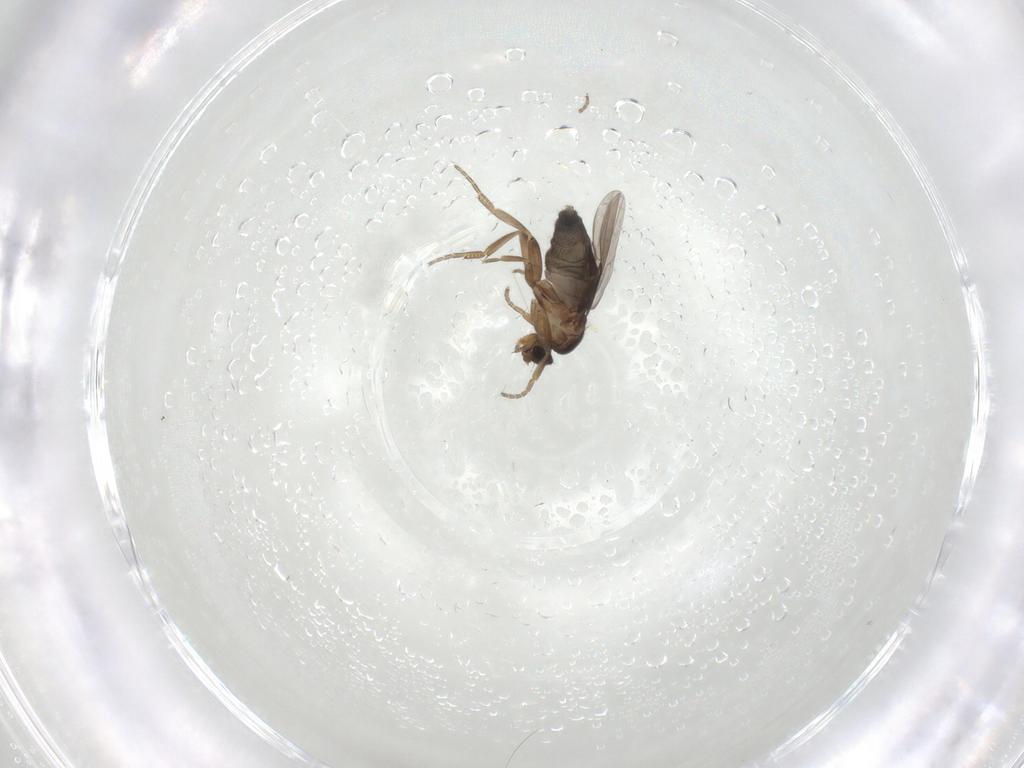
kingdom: Animalia
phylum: Arthropoda
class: Insecta
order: Diptera
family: Phoridae
